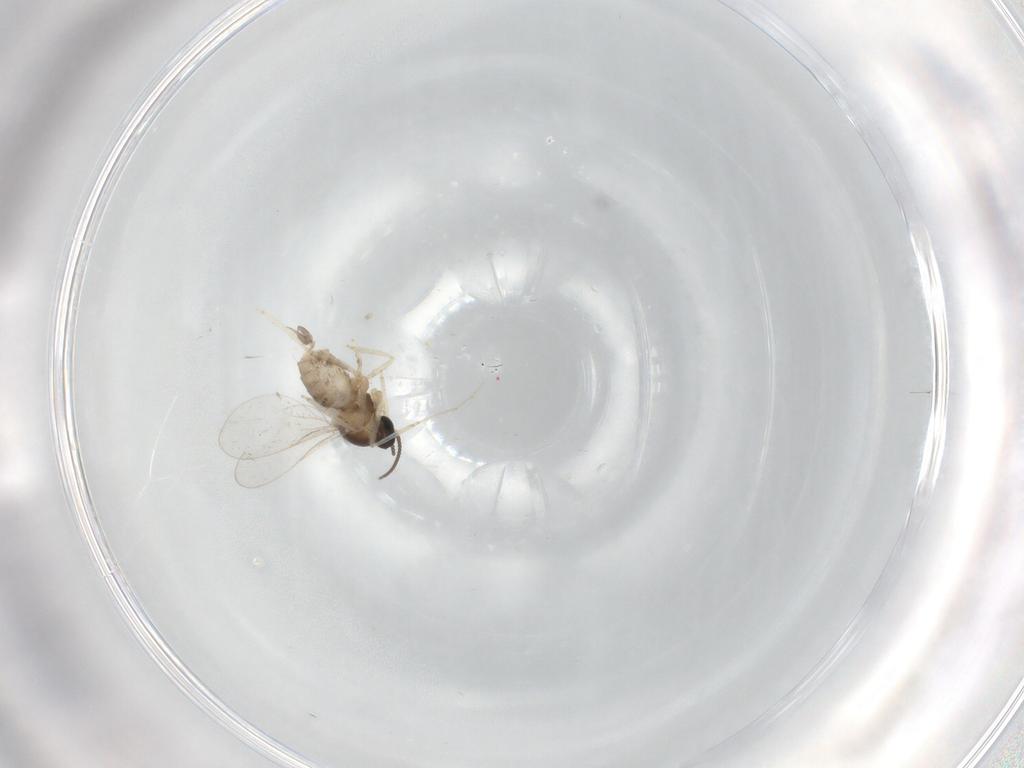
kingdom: Animalia
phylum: Arthropoda
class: Insecta
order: Diptera
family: Cecidomyiidae
